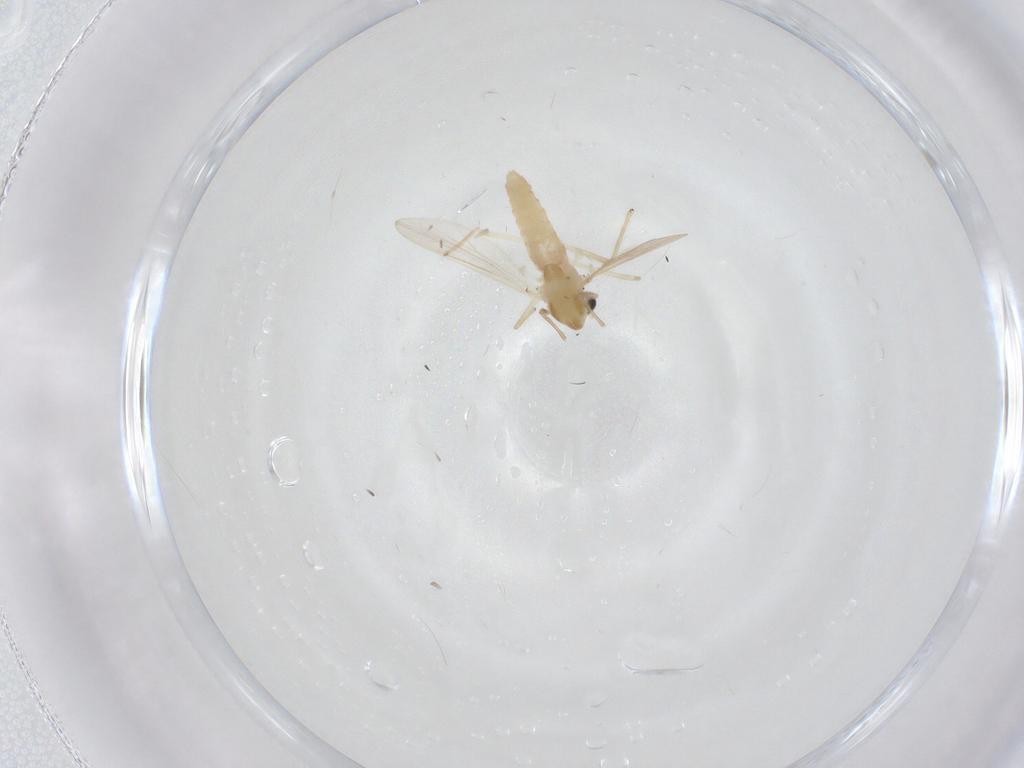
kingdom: Animalia
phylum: Arthropoda
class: Insecta
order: Diptera
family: Chironomidae
